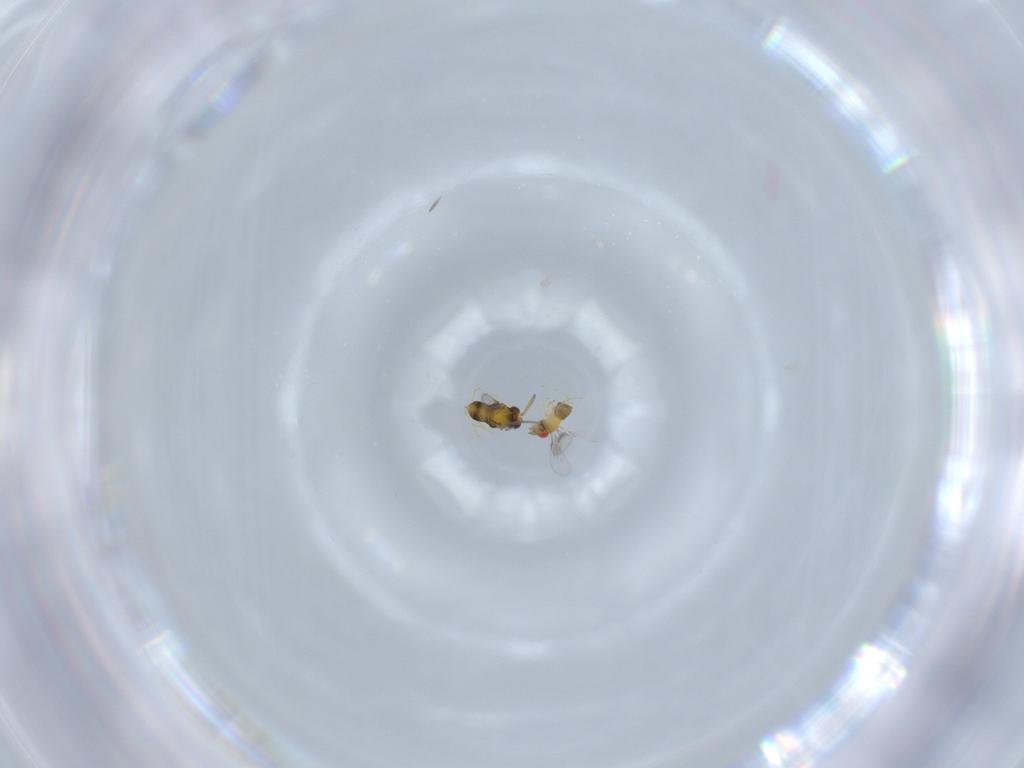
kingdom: Animalia
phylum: Arthropoda
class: Insecta
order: Hymenoptera
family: Trichogrammatidae
